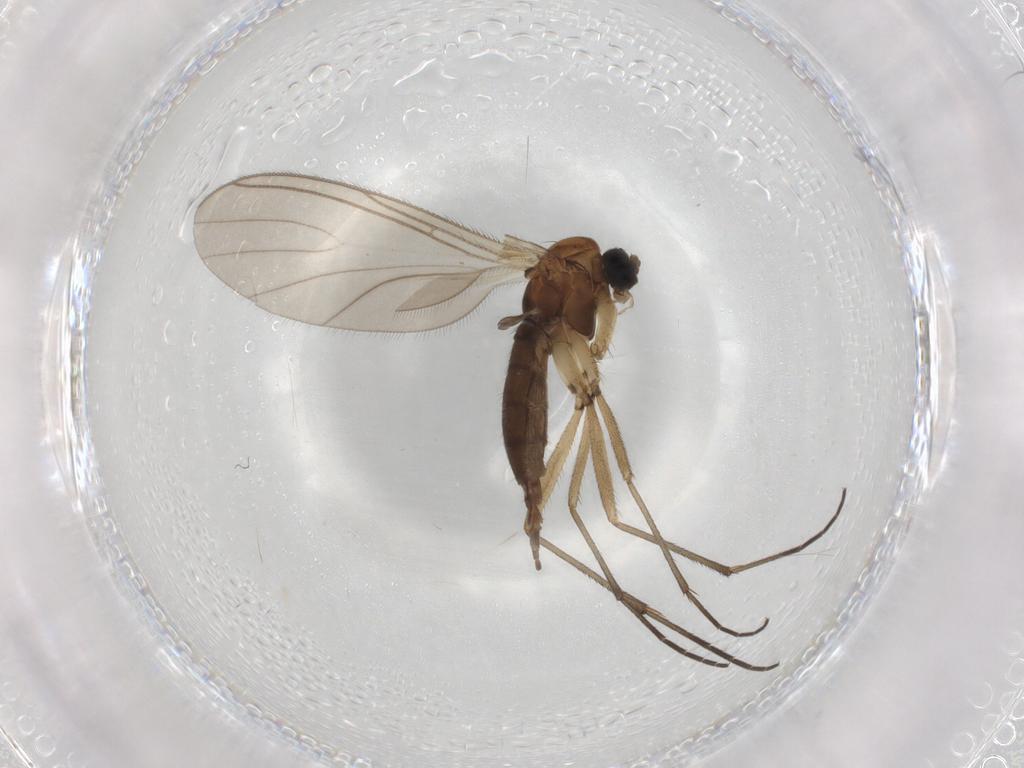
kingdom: Animalia
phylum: Arthropoda
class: Insecta
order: Diptera
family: Sciaridae
